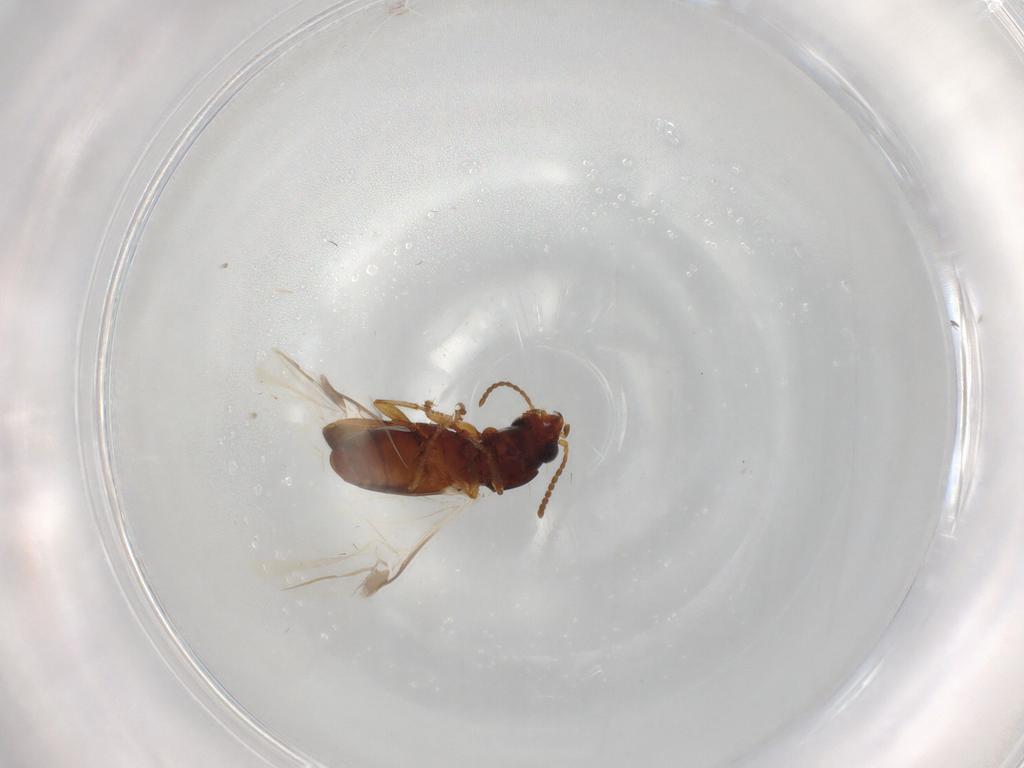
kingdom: Animalia
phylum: Arthropoda
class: Insecta
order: Coleoptera
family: Carabidae
